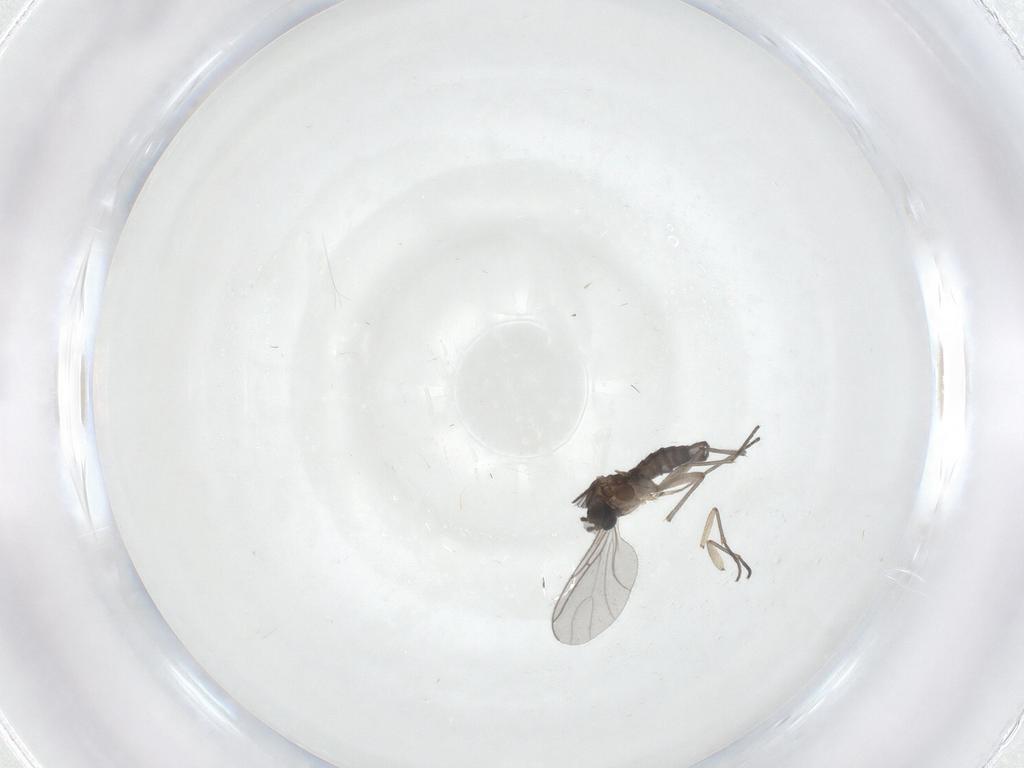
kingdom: Animalia
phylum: Arthropoda
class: Insecta
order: Diptera
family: Sciaridae
